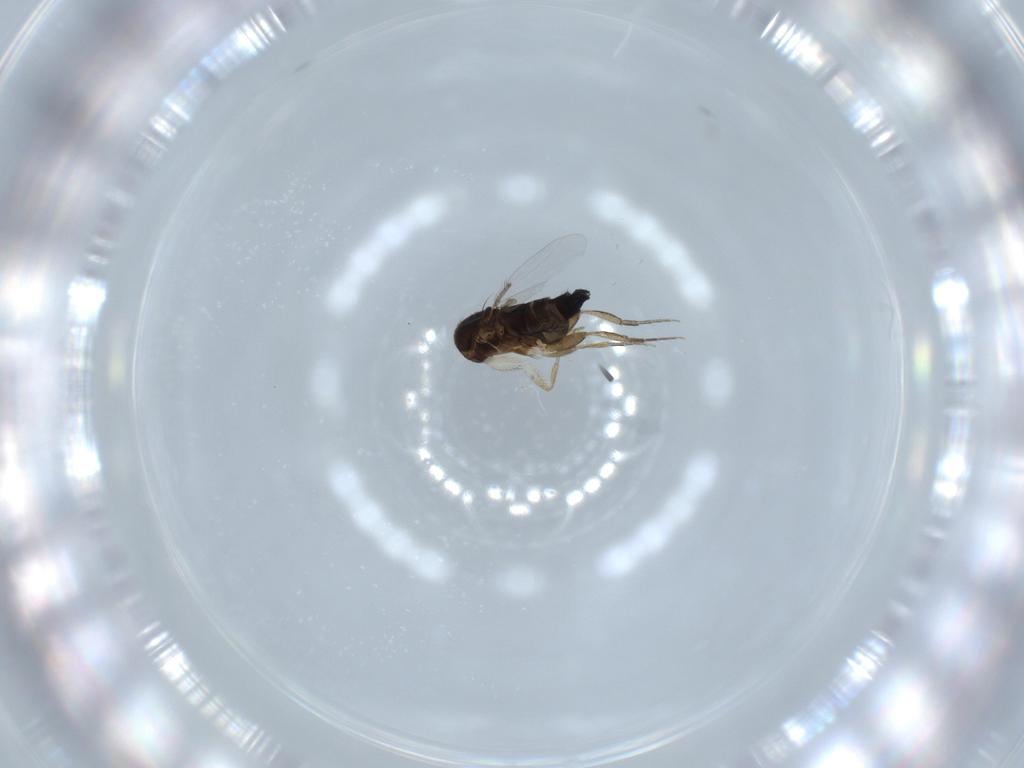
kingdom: Animalia
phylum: Arthropoda
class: Insecta
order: Diptera
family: Phoridae
